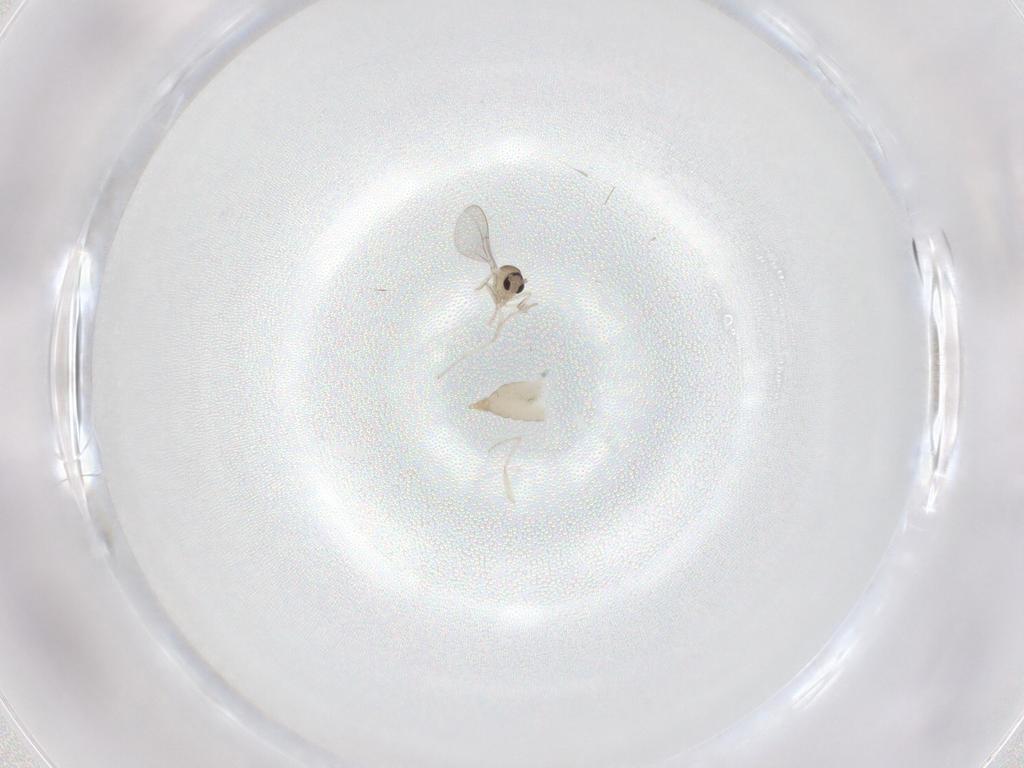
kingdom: Animalia
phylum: Arthropoda
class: Insecta
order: Diptera
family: Cecidomyiidae
